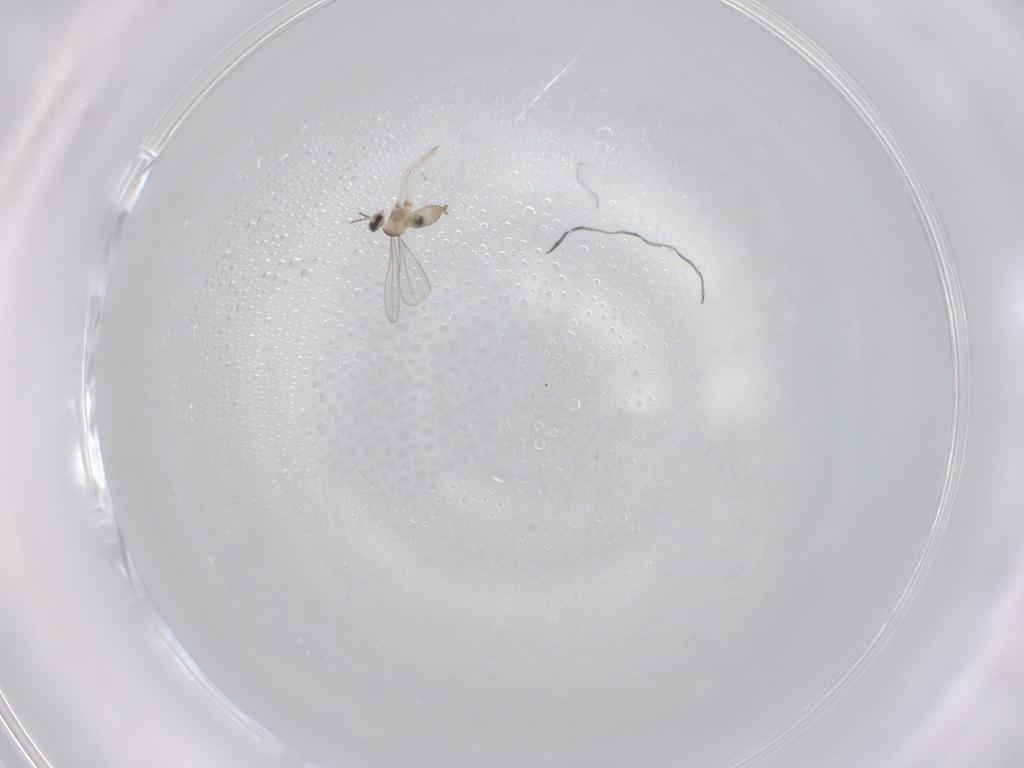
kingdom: Animalia
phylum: Arthropoda
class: Insecta
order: Diptera
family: Cecidomyiidae
